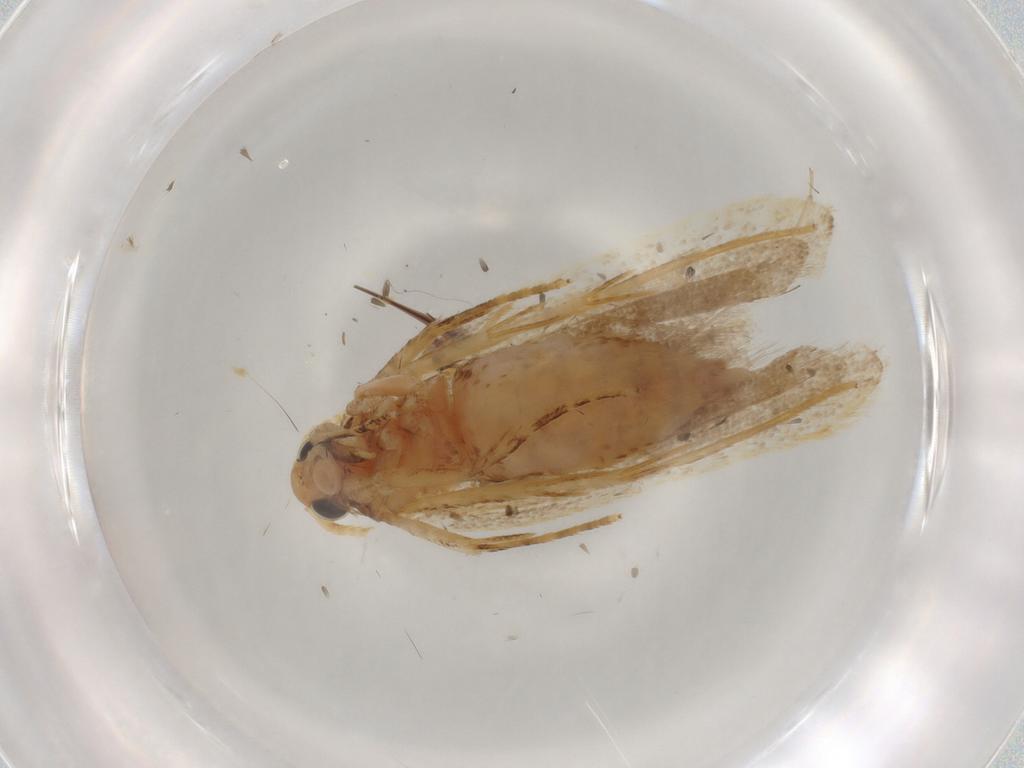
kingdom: Animalia
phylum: Arthropoda
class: Insecta
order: Lepidoptera
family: Lecithoceridae
